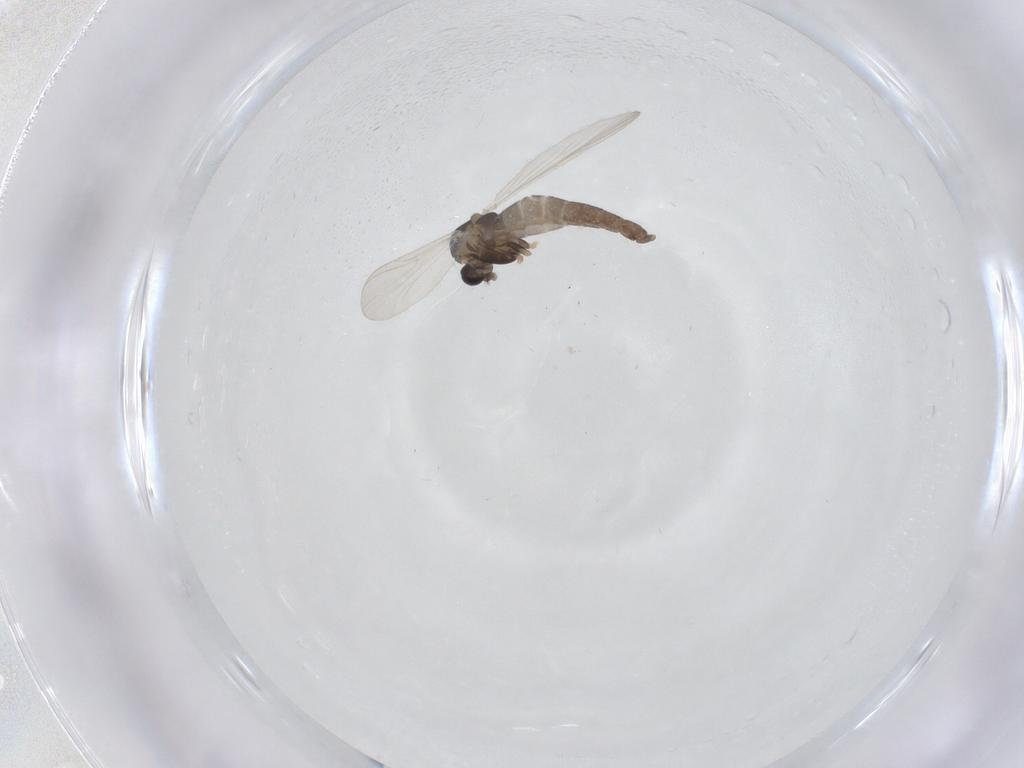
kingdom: Animalia
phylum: Arthropoda
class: Insecta
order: Diptera
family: Chironomidae
